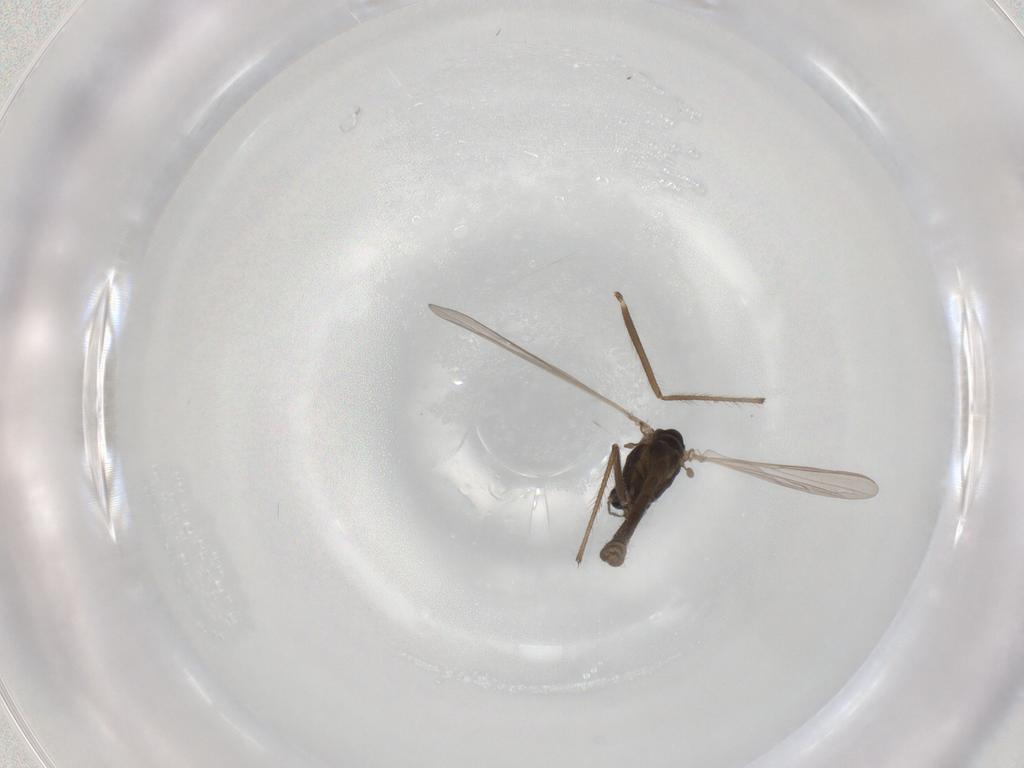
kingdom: Animalia
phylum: Arthropoda
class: Insecta
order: Diptera
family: Chironomidae
